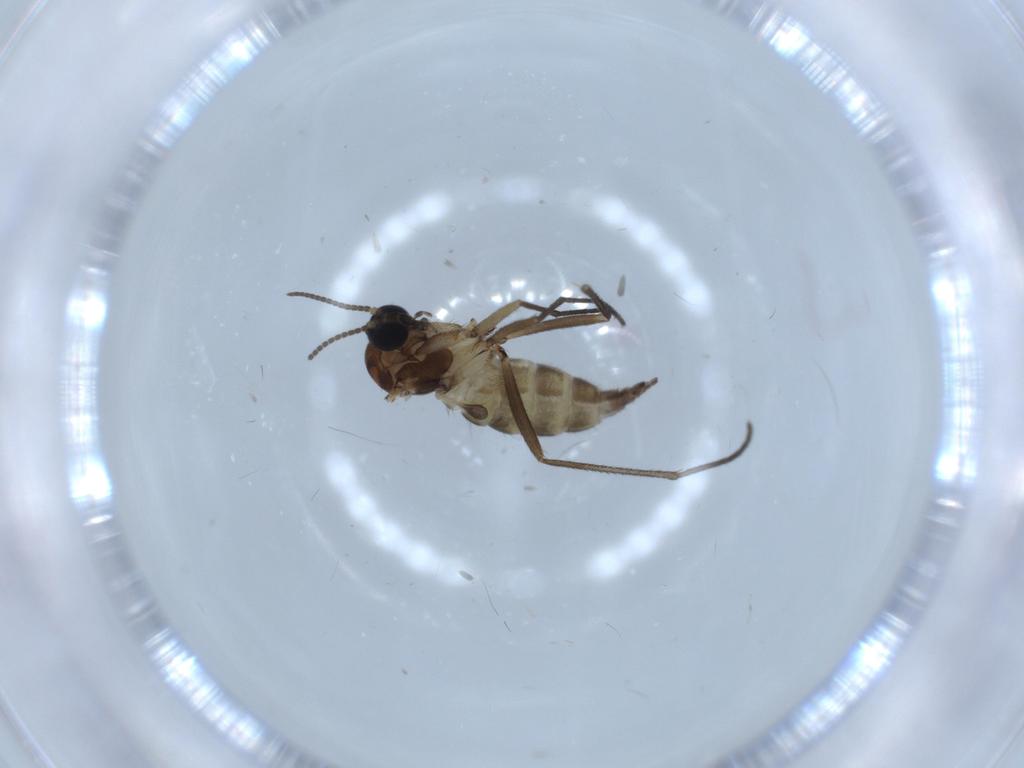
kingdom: Animalia
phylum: Arthropoda
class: Insecta
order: Diptera
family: Sciaridae
